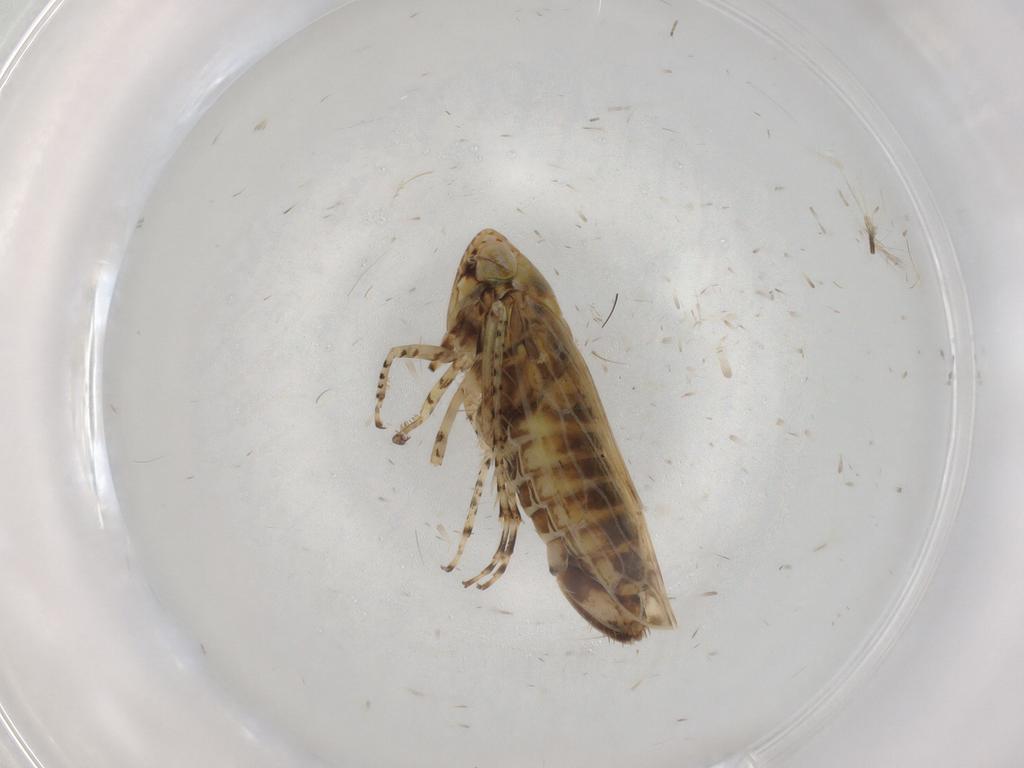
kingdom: Animalia
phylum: Arthropoda
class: Insecta
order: Hemiptera
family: Cicadellidae
